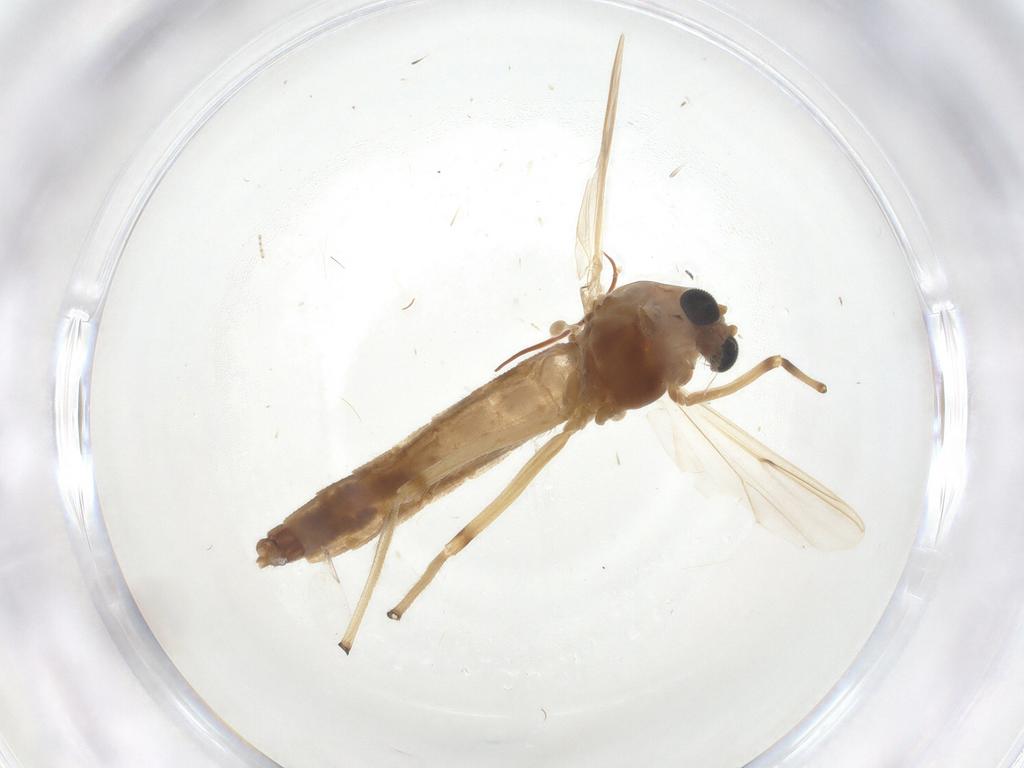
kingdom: Animalia
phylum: Arthropoda
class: Insecta
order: Diptera
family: Chironomidae
